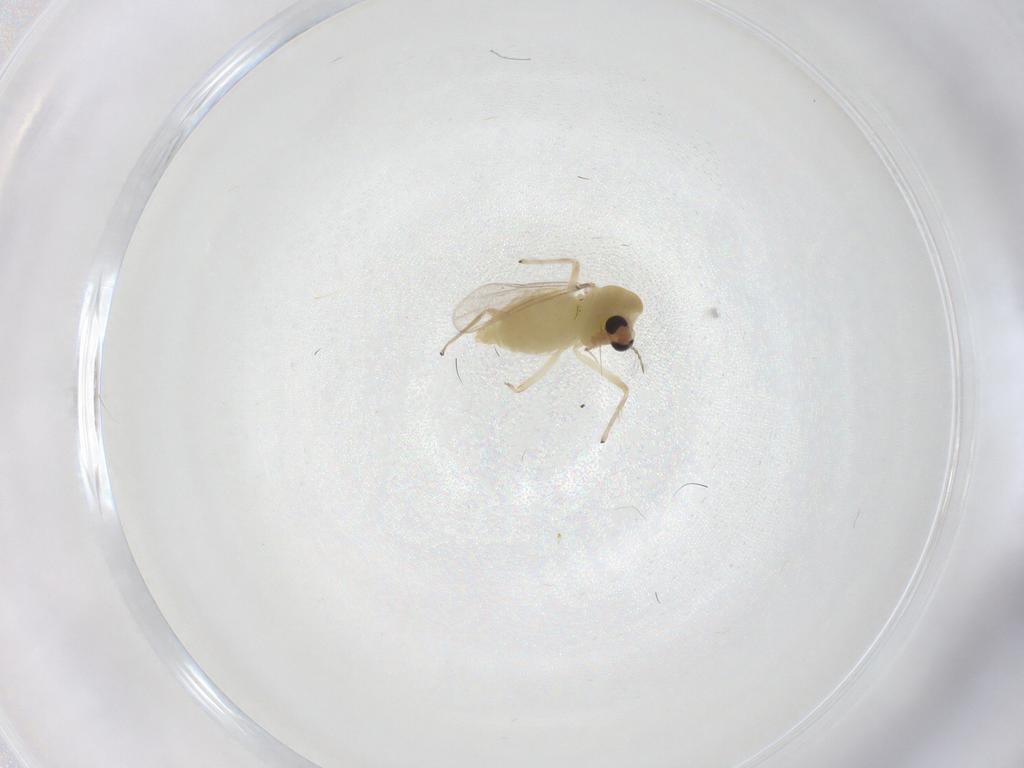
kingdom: Animalia
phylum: Arthropoda
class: Insecta
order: Diptera
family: Chironomidae
